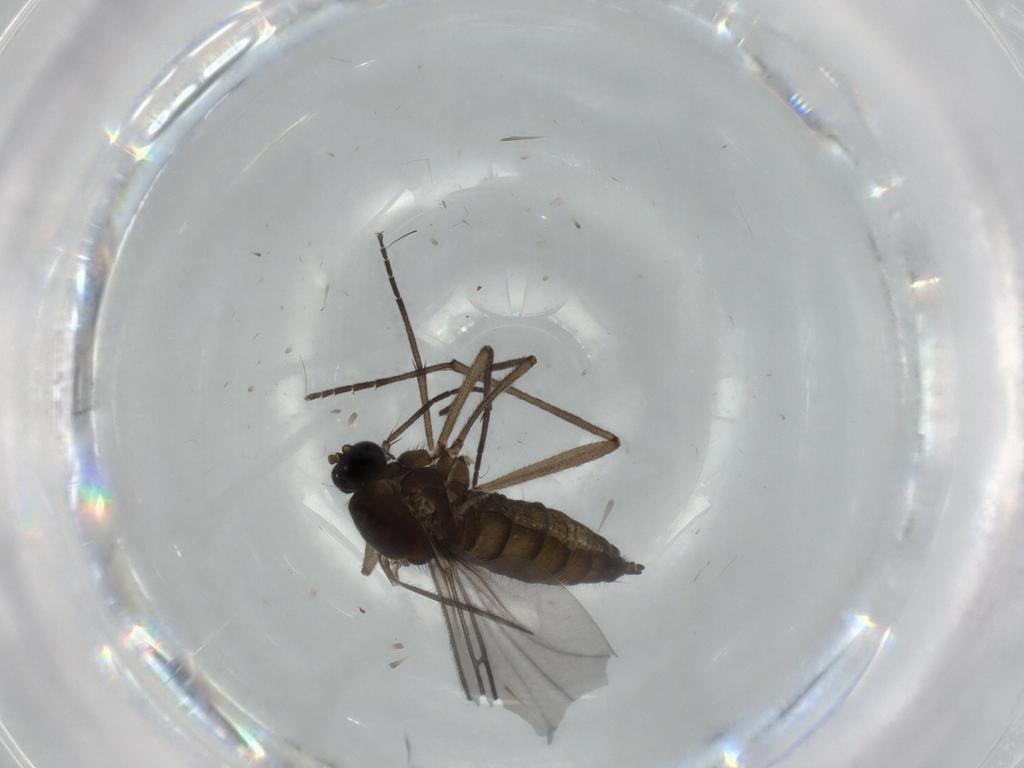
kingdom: Animalia
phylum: Arthropoda
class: Insecta
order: Diptera
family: Sciaridae
